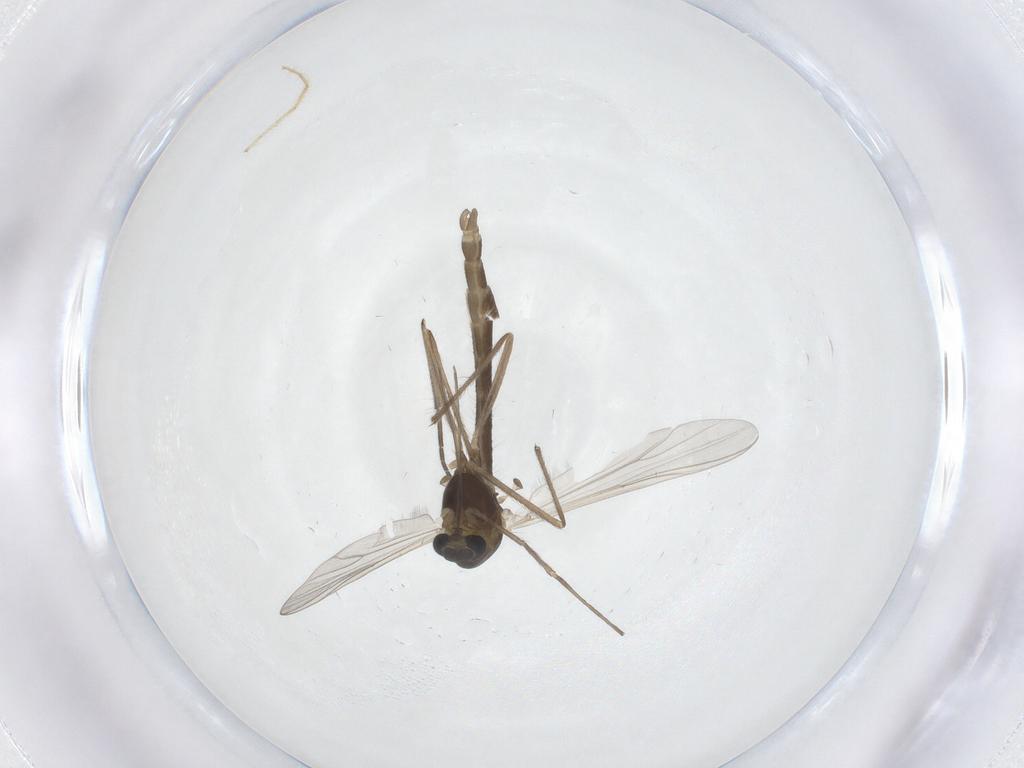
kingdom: Animalia
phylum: Arthropoda
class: Insecta
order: Diptera
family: Chironomidae
